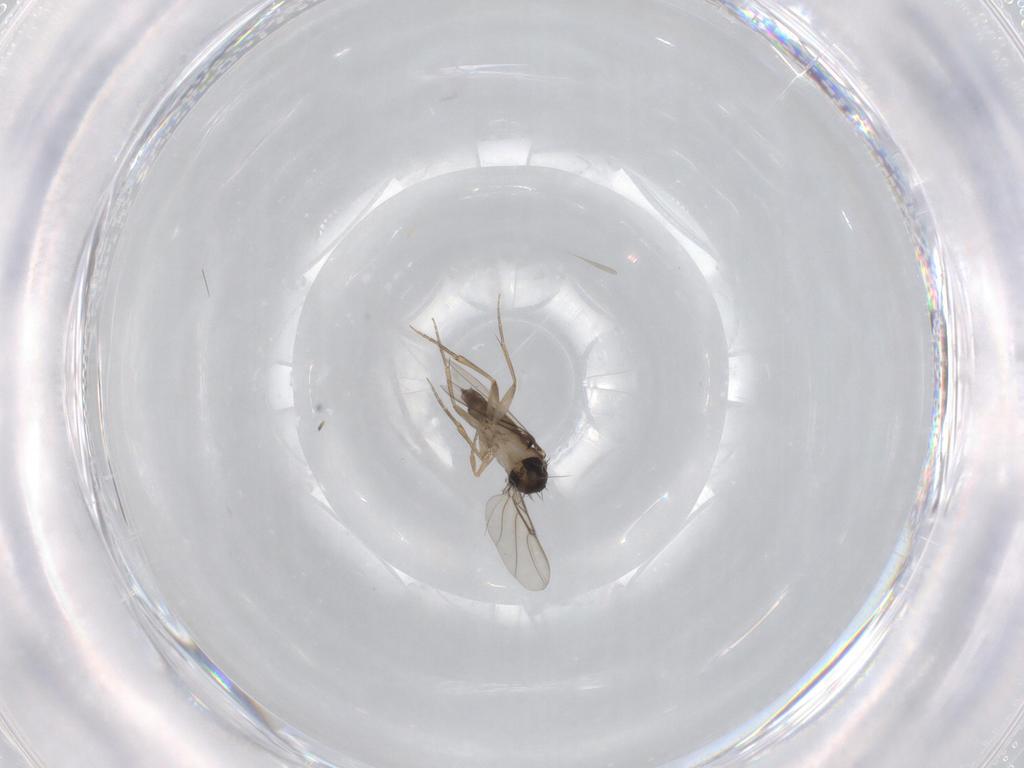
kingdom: Animalia
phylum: Arthropoda
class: Insecta
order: Diptera
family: Phoridae
